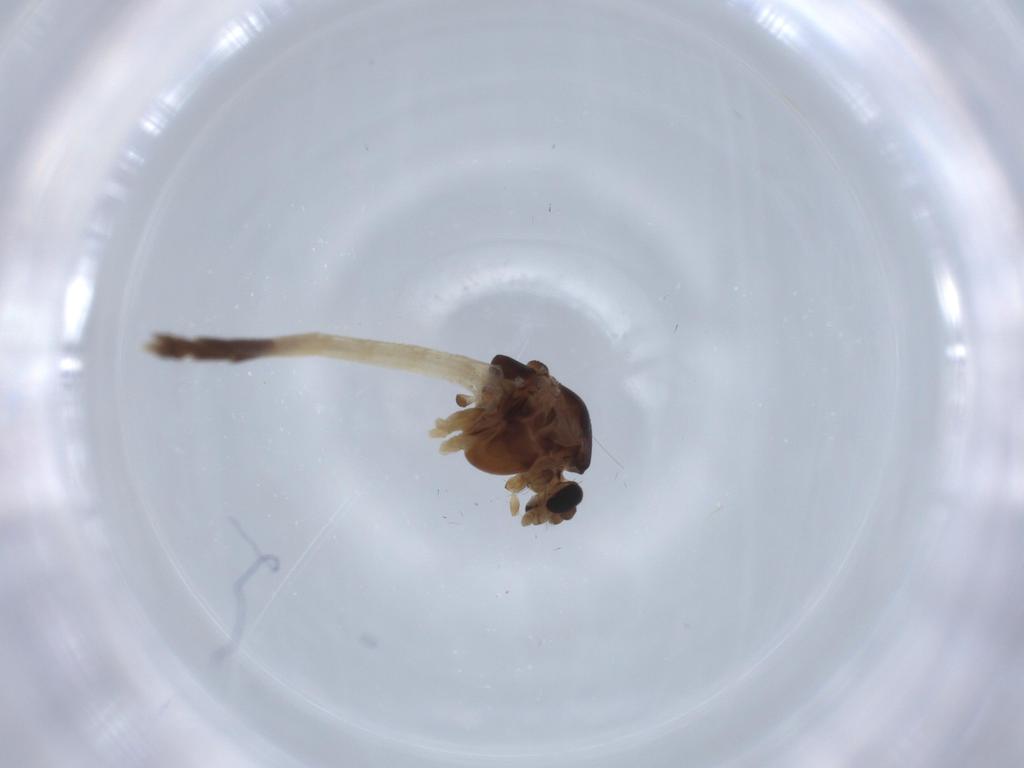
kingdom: Animalia
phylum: Arthropoda
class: Insecta
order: Diptera
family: Chironomidae
